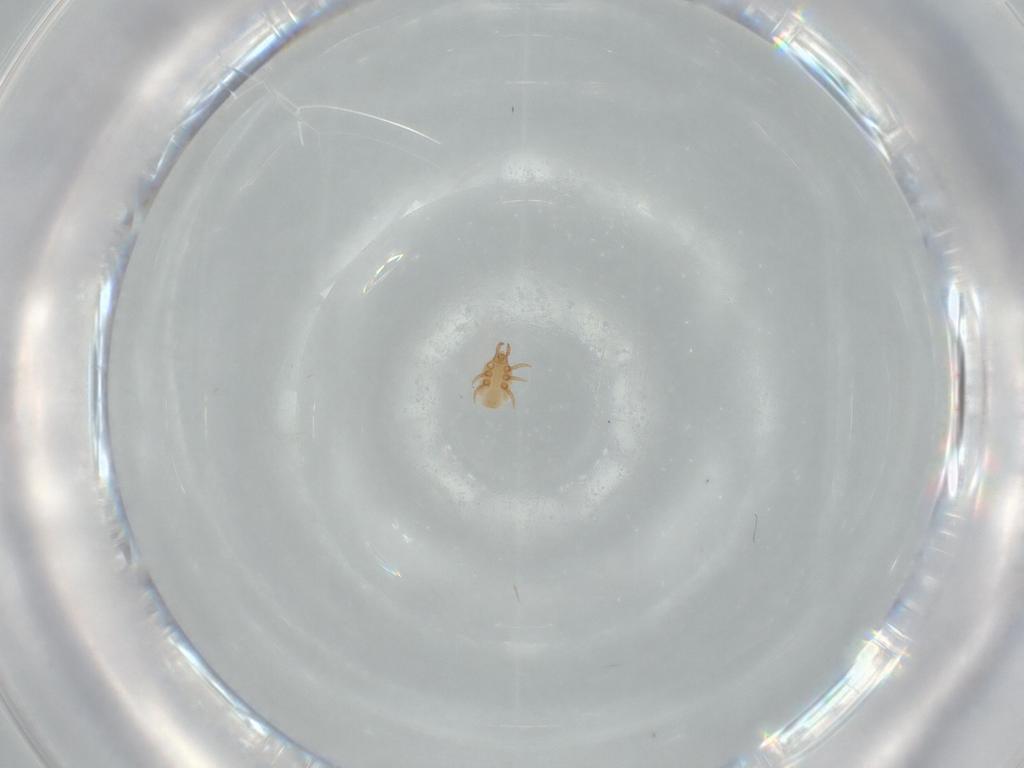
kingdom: Animalia
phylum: Arthropoda
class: Arachnida
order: Mesostigmata
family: Dinychidae
